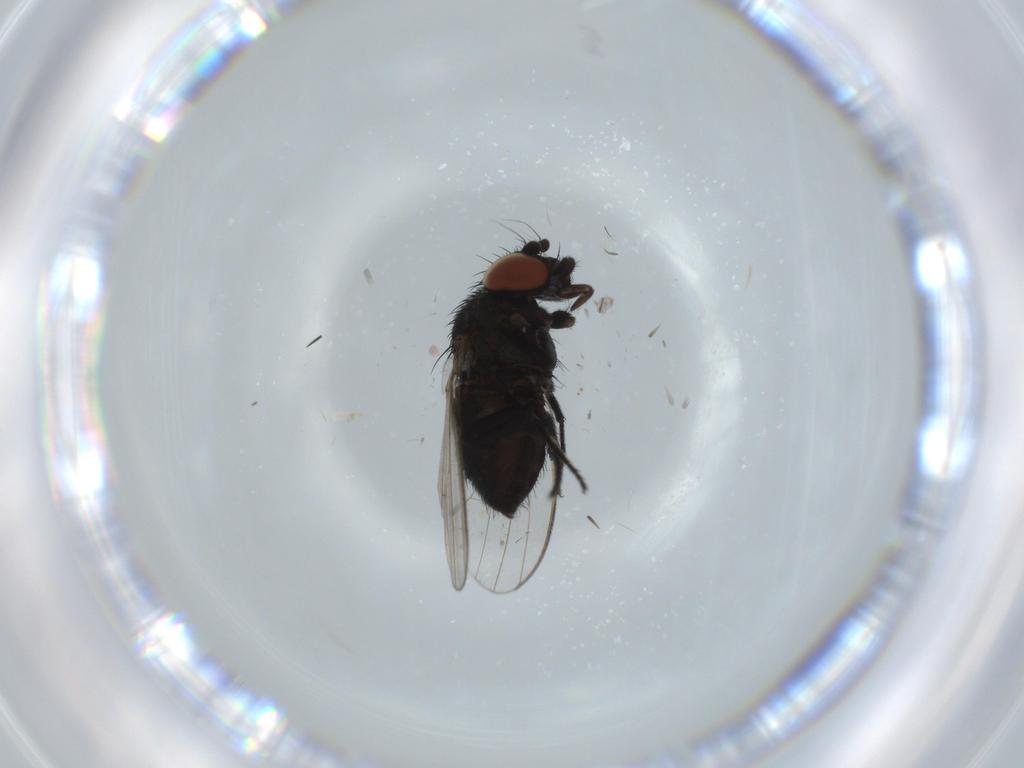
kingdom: Animalia
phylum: Arthropoda
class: Insecta
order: Diptera
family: Milichiidae
